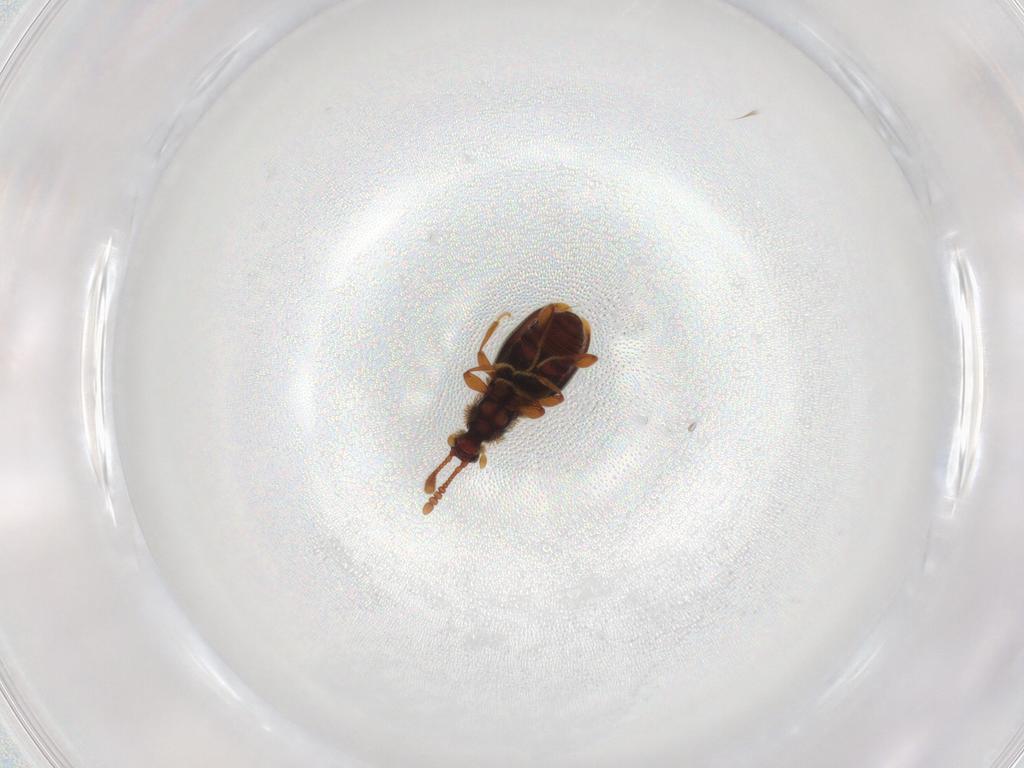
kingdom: Animalia
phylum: Arthropoda
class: Insecta
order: Coleoptera
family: Staphylinidae
